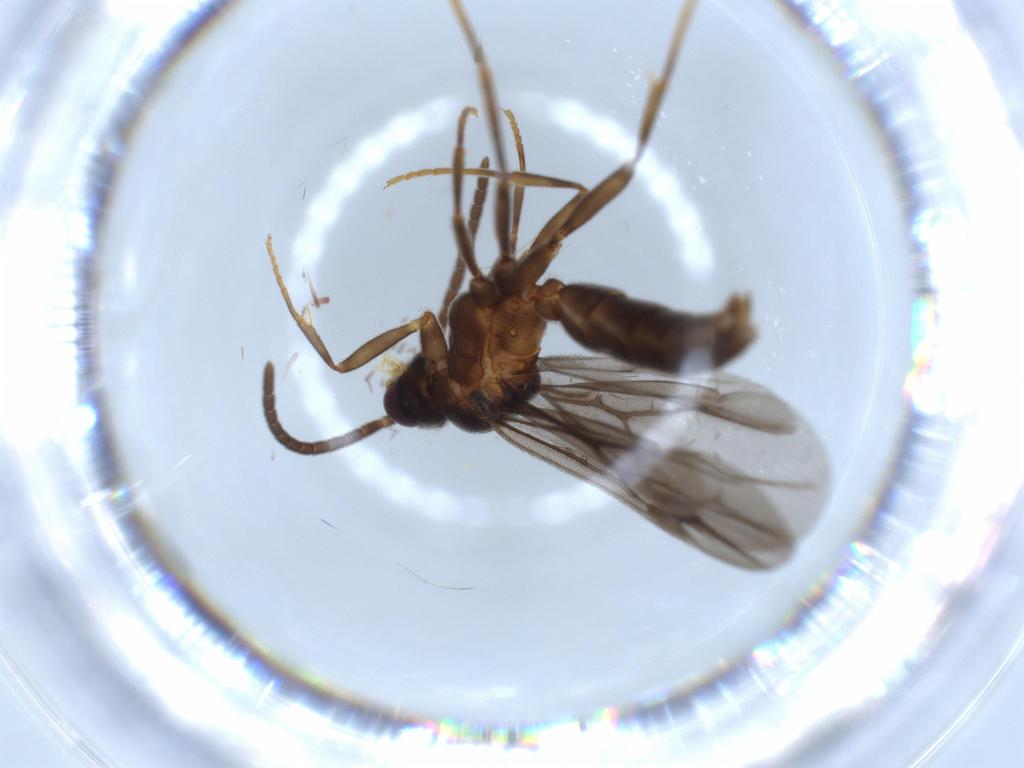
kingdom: Animalia
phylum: Arthropoda
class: Insecta
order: Hymenoptera
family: Formicidae
